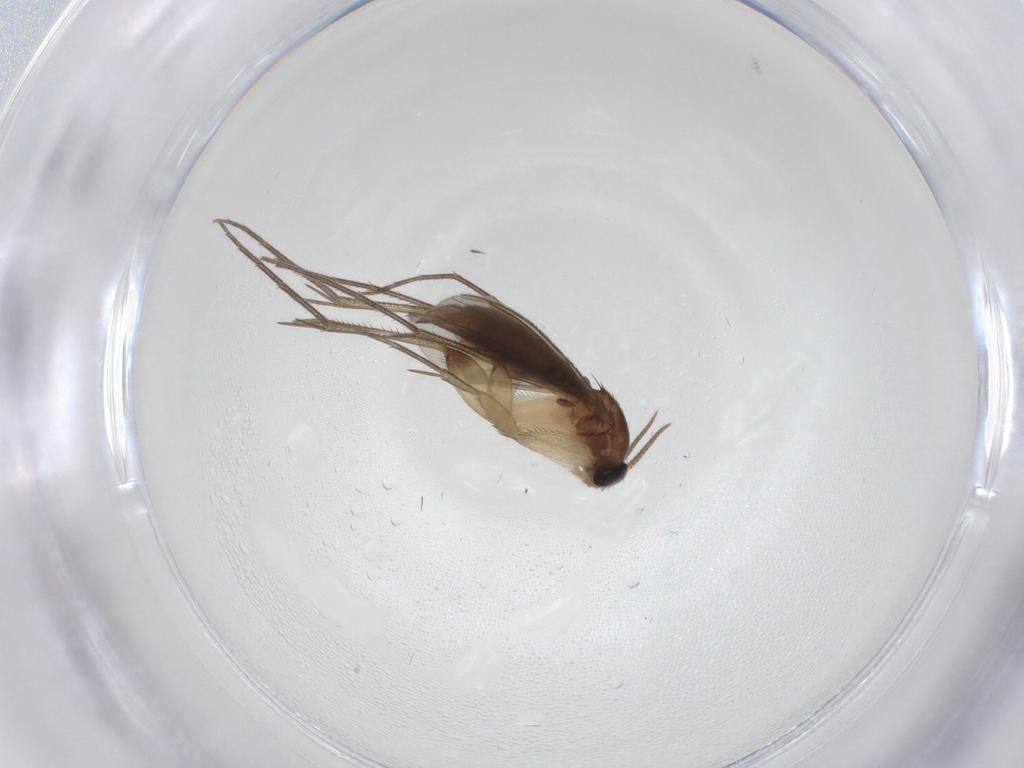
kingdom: Animalia
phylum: Arthropoda
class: Insecta
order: Diptera
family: Mycetophilidae
